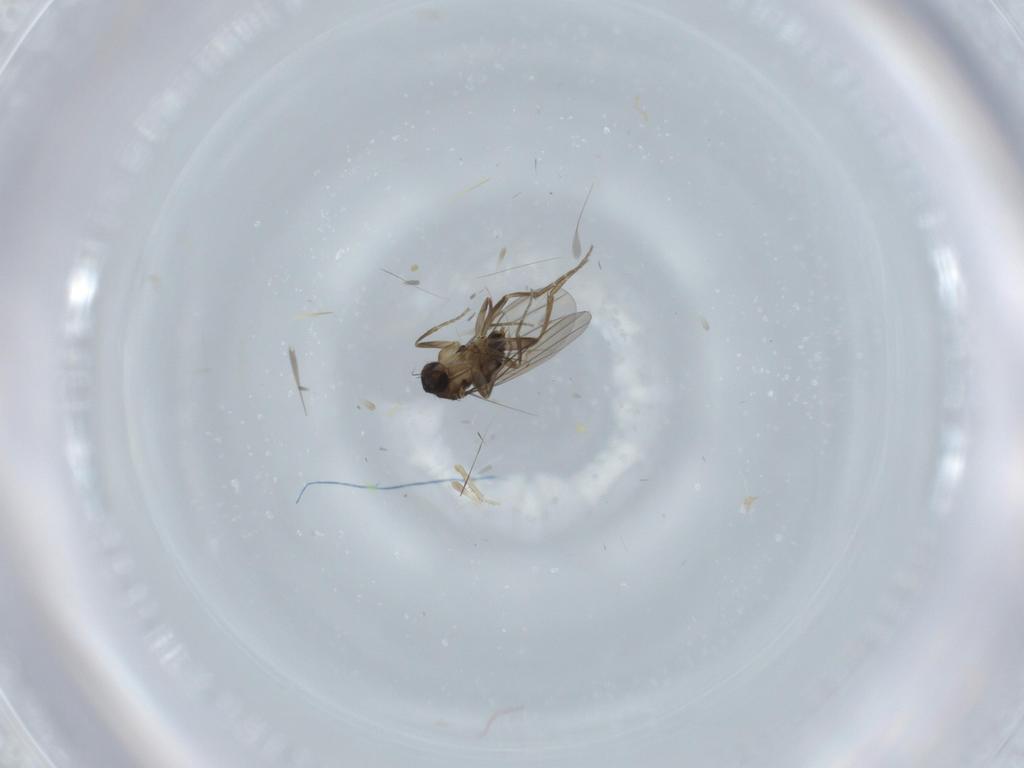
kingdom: Animalia
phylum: Arthropoda
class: Insecta
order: Diptera
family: Phoridae
